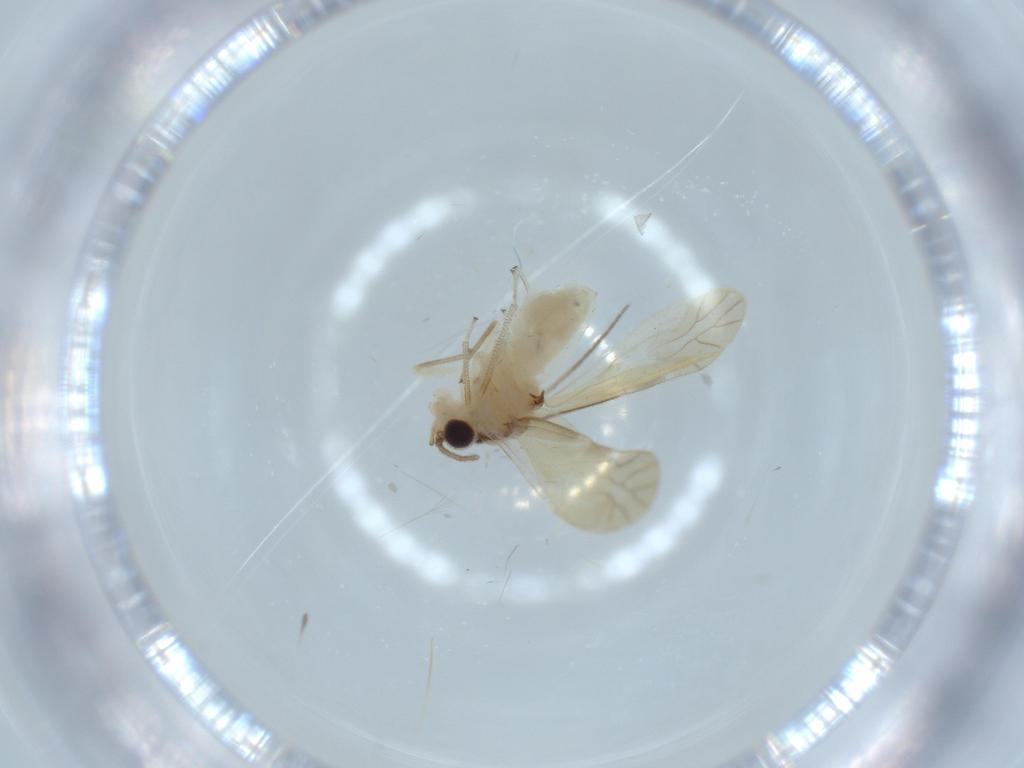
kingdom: Animalia
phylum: Arthropoda
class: Insecta
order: Psocodea
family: Caeciliusidae
